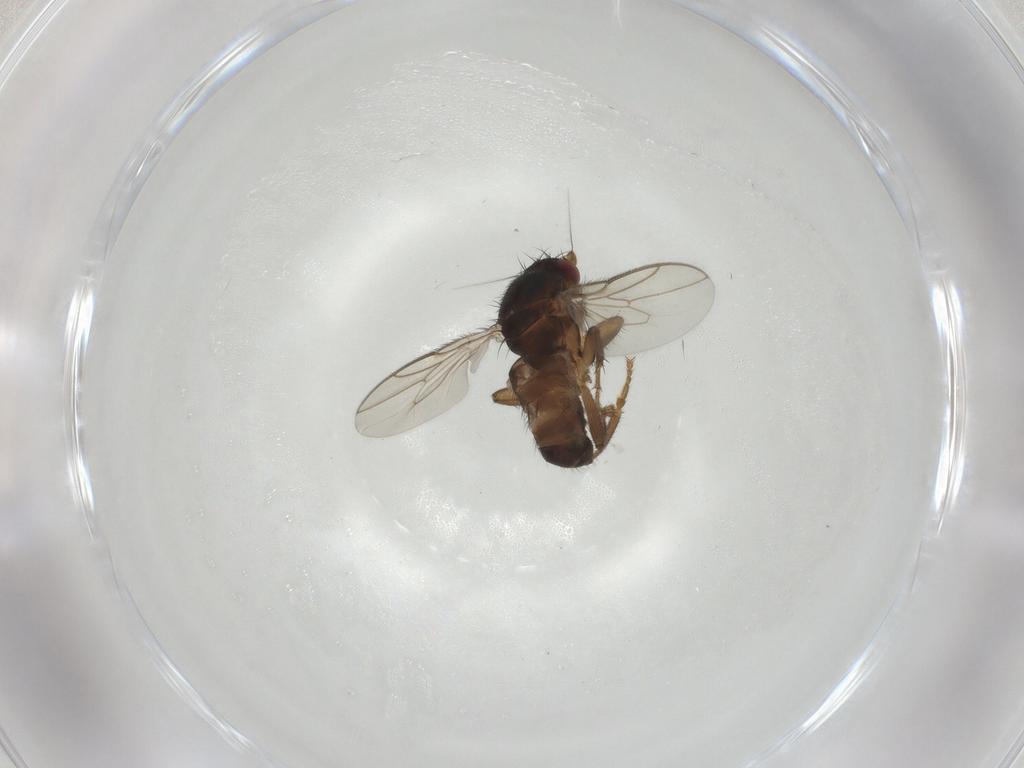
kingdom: Animalia
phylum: Arthropoda
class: Insecta
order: Diptera
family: Sphaeroceridae
